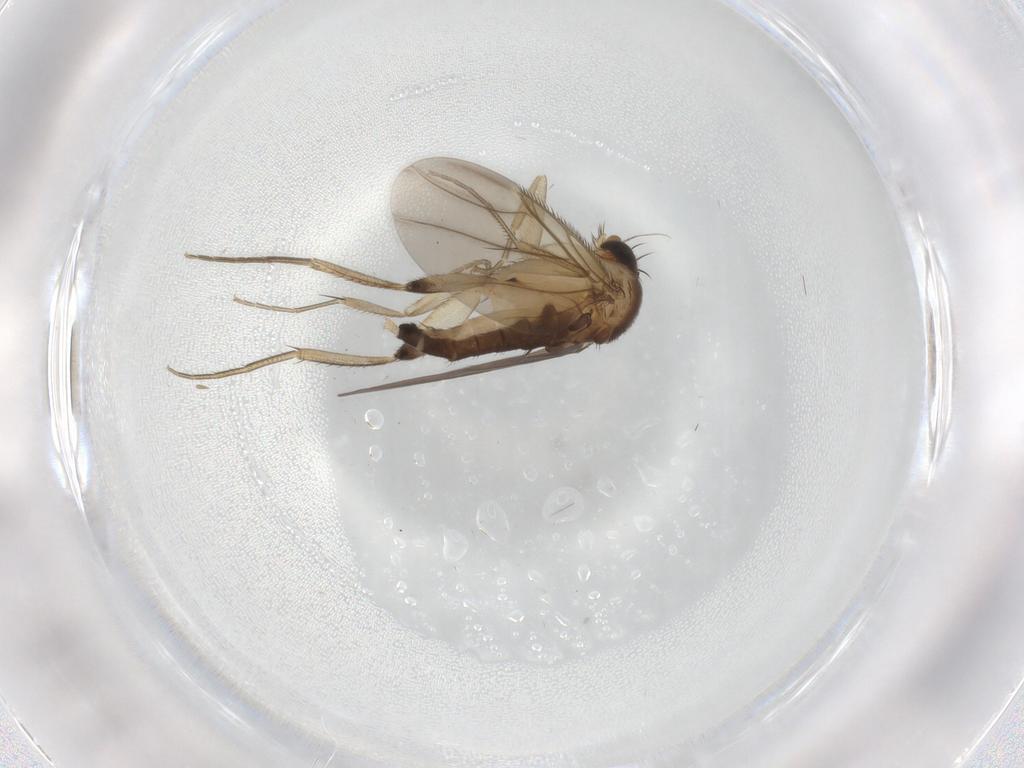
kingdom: Animalia
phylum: Arthropoda
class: Insecta
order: Diptera
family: Phoridae
